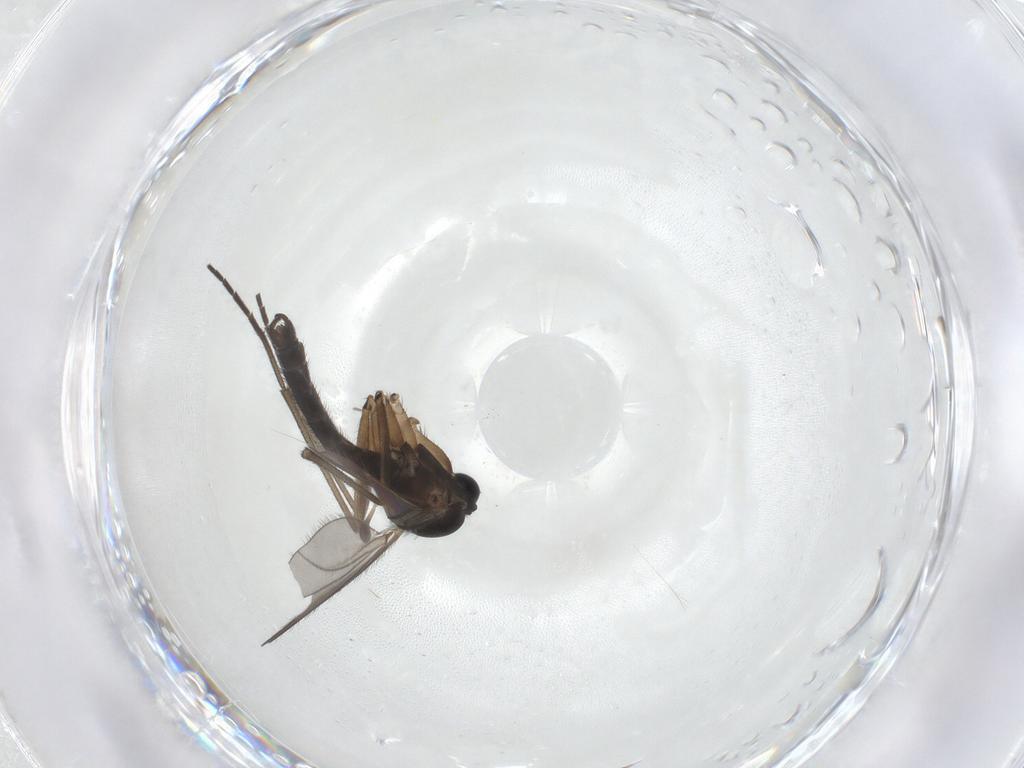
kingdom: Animalia
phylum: Arthropoda
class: Insecta
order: Diptera
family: Sciaridae
